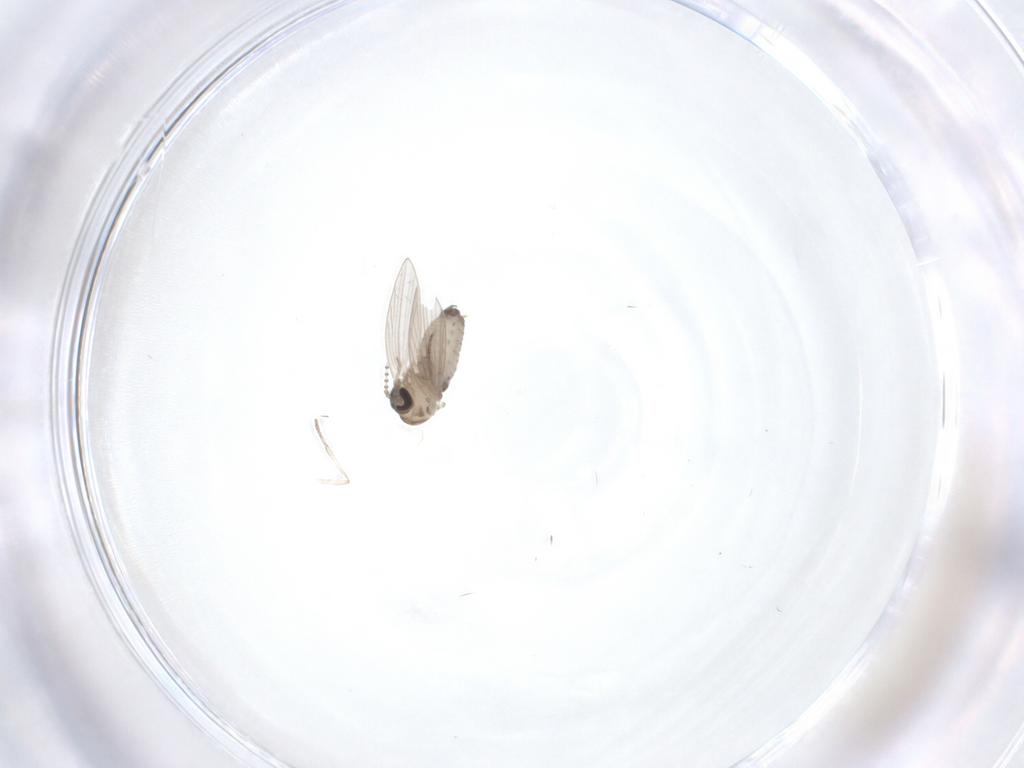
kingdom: Animalia
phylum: Arthropoda
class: Insecta
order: Diptera
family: Psychodidae
